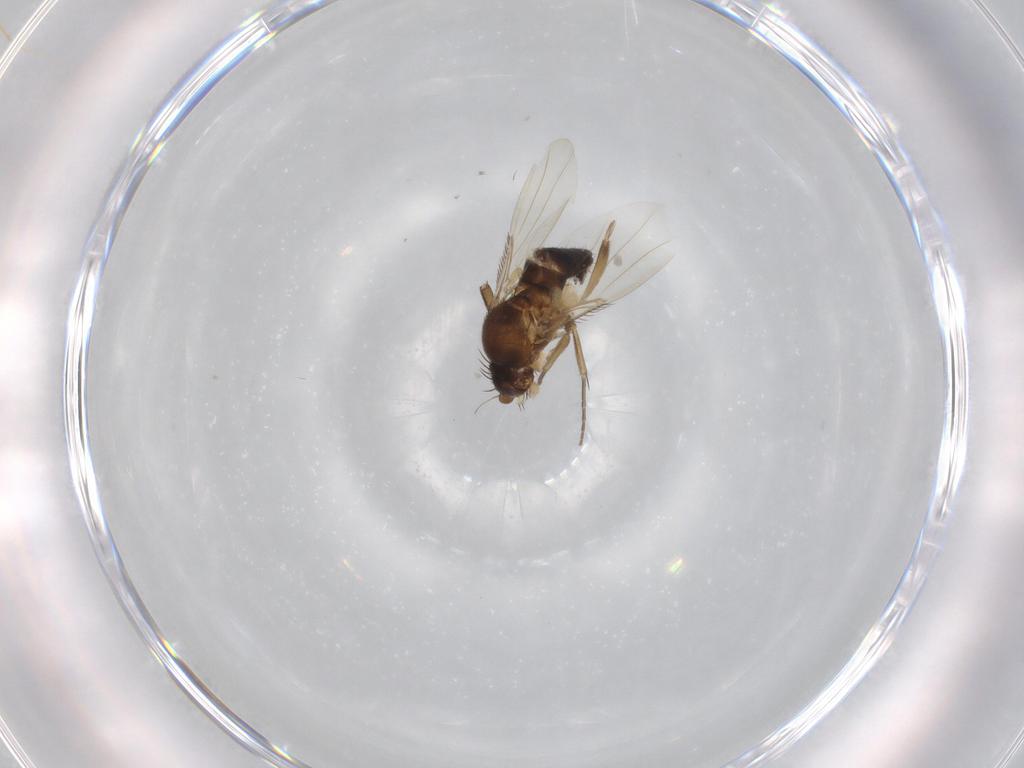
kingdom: Animalia
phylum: Arthropoda
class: Insecta
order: Diptera
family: Phoridae
